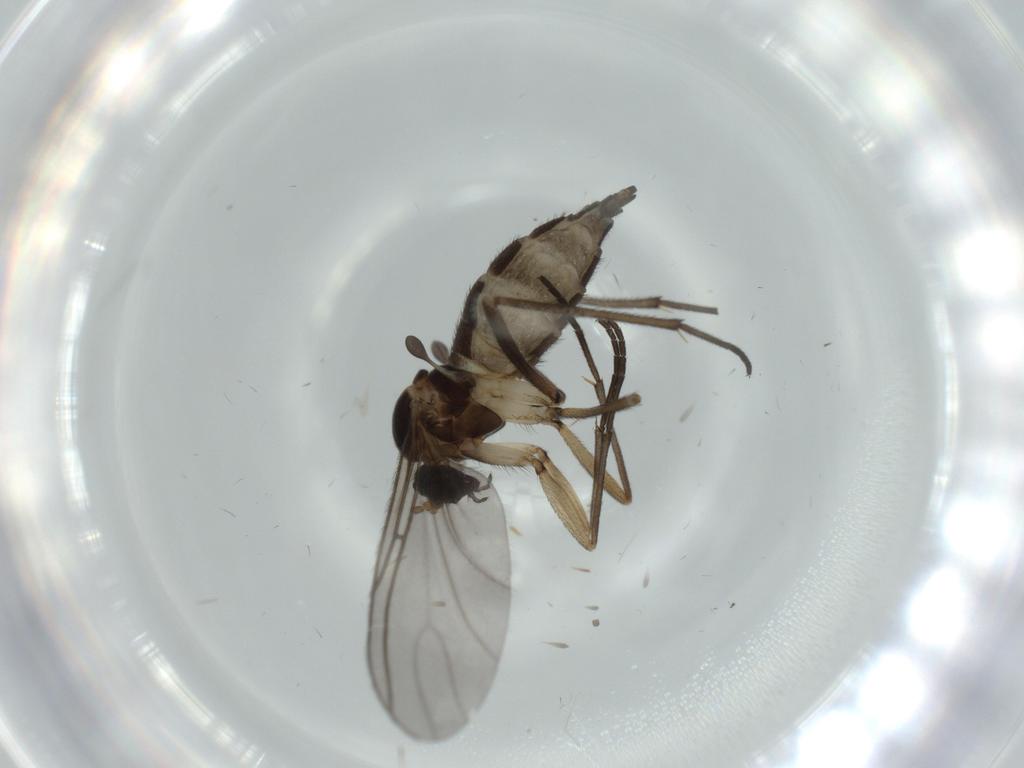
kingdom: Animalia
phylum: Arthropoda
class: Insecta
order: Diptera
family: Sciaridae
